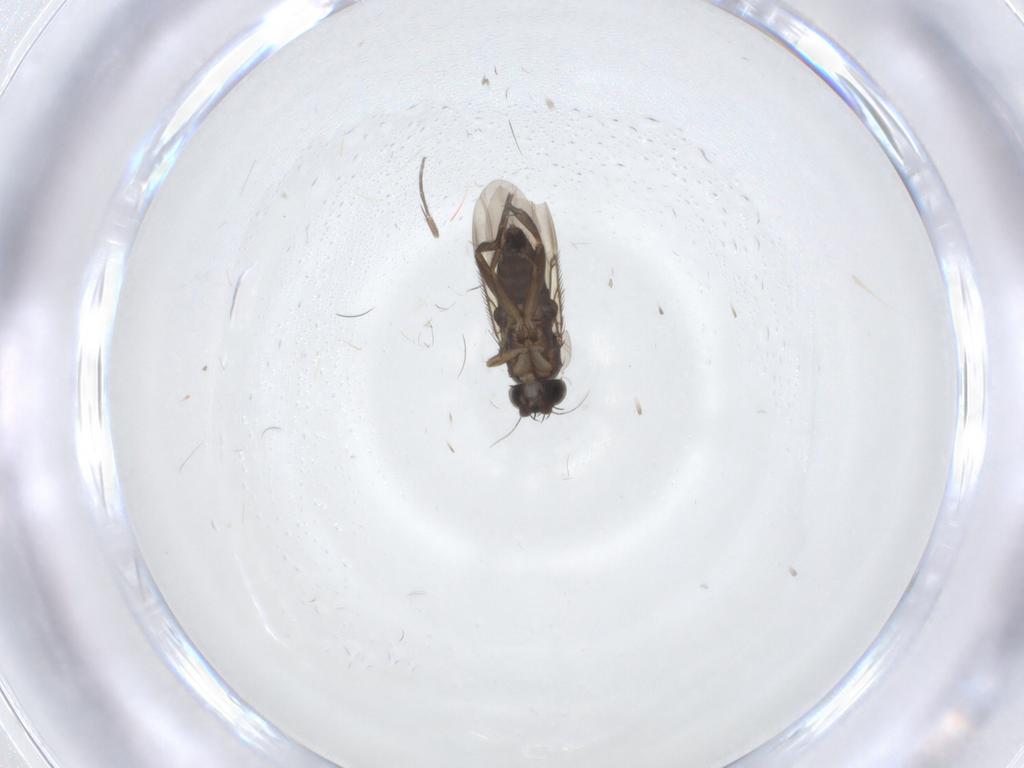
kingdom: Animalia
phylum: Arthropoda
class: Insecta
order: Diptera
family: Phoridae
